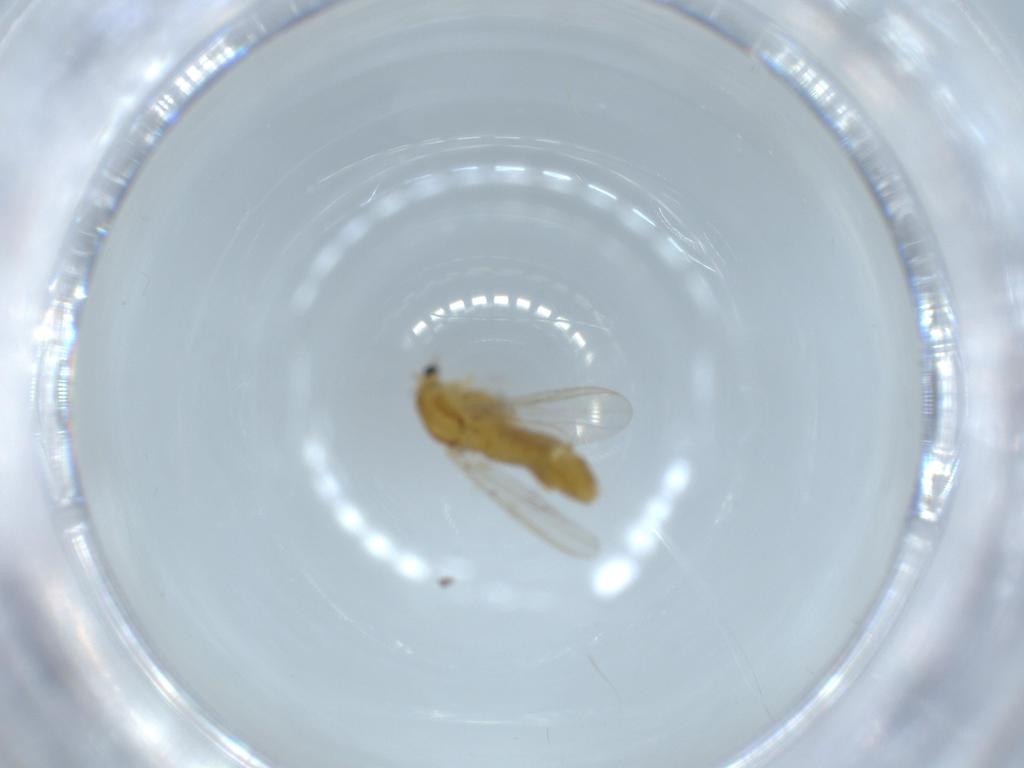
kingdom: Animalia
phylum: Arthropoda
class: Insecta
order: Diptera
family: Chironomidae
